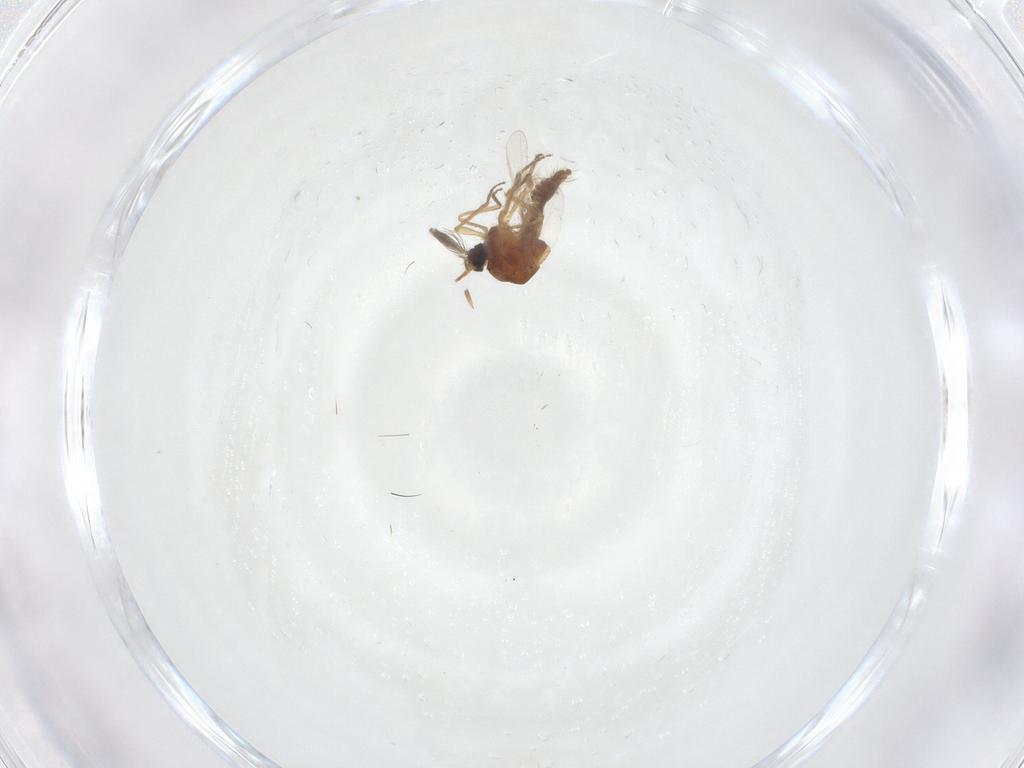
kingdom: Animalia
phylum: Arthropoda
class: Insecta
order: Diptera
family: Ceratopogonidae
